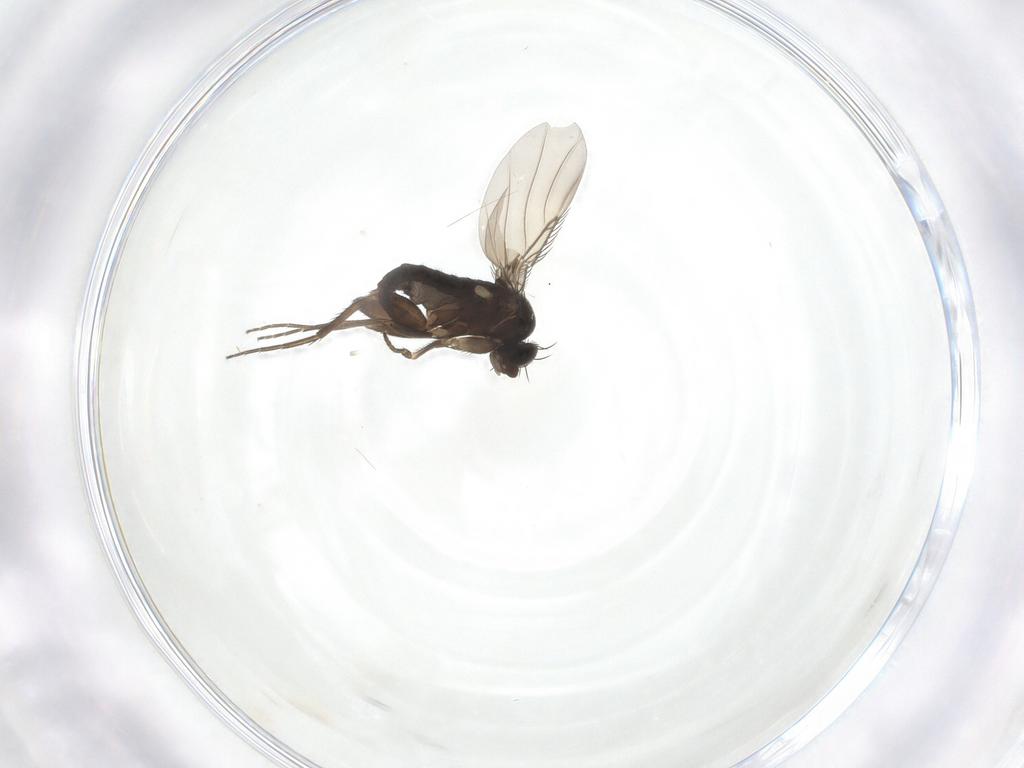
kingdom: Animalia
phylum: Arthropoda
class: Insecta
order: Diptera
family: Phoridae
